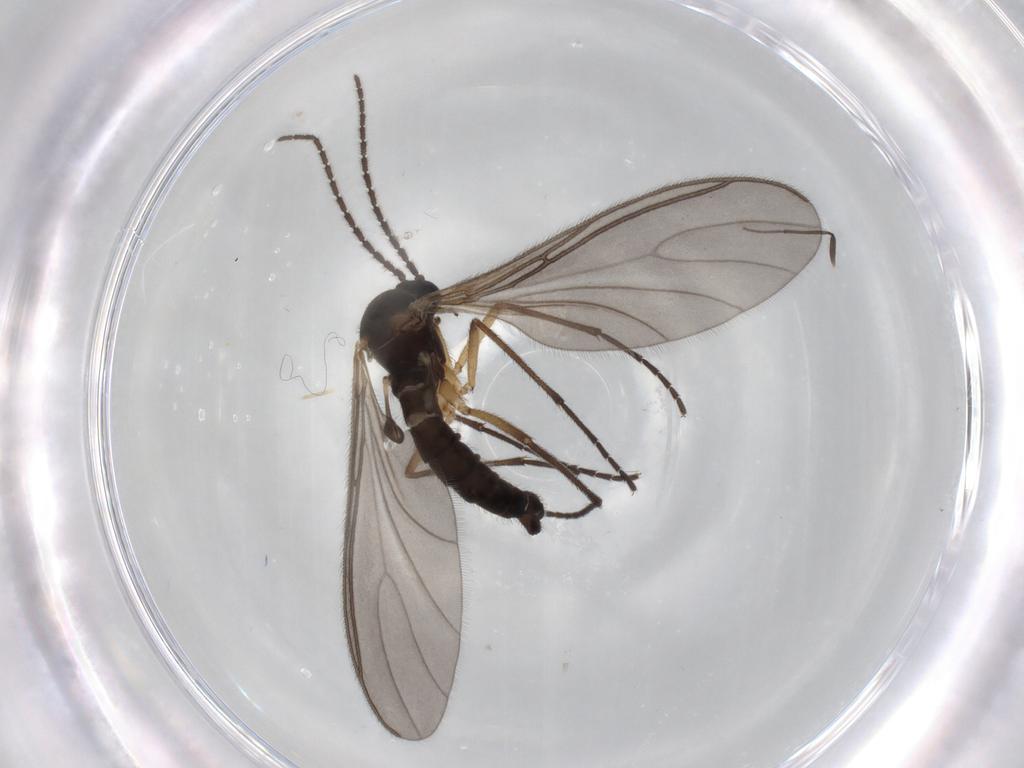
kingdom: Animalia
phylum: Arthropoda
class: Insecta
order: Diptera
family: Sciaridae
